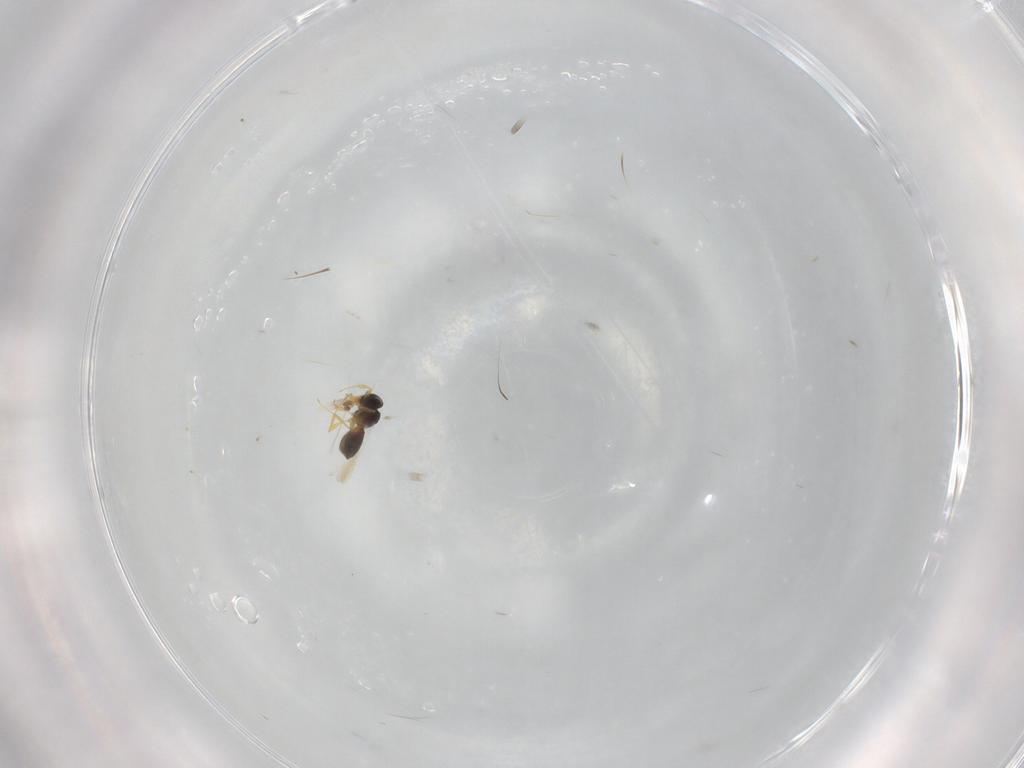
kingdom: Animalia
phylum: Arthropoda
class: Insecta
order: Hymenoptera
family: Scelionidae
